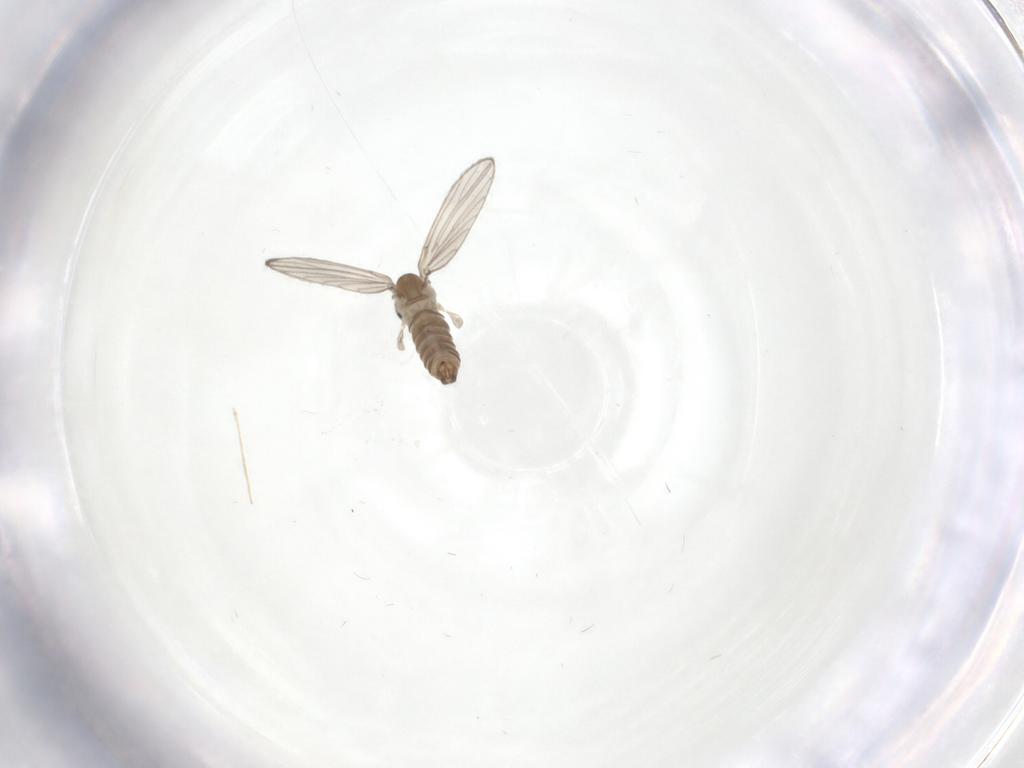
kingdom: Animalia
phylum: Arthropoda
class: Insecta
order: Diptera
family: Psychodidae
